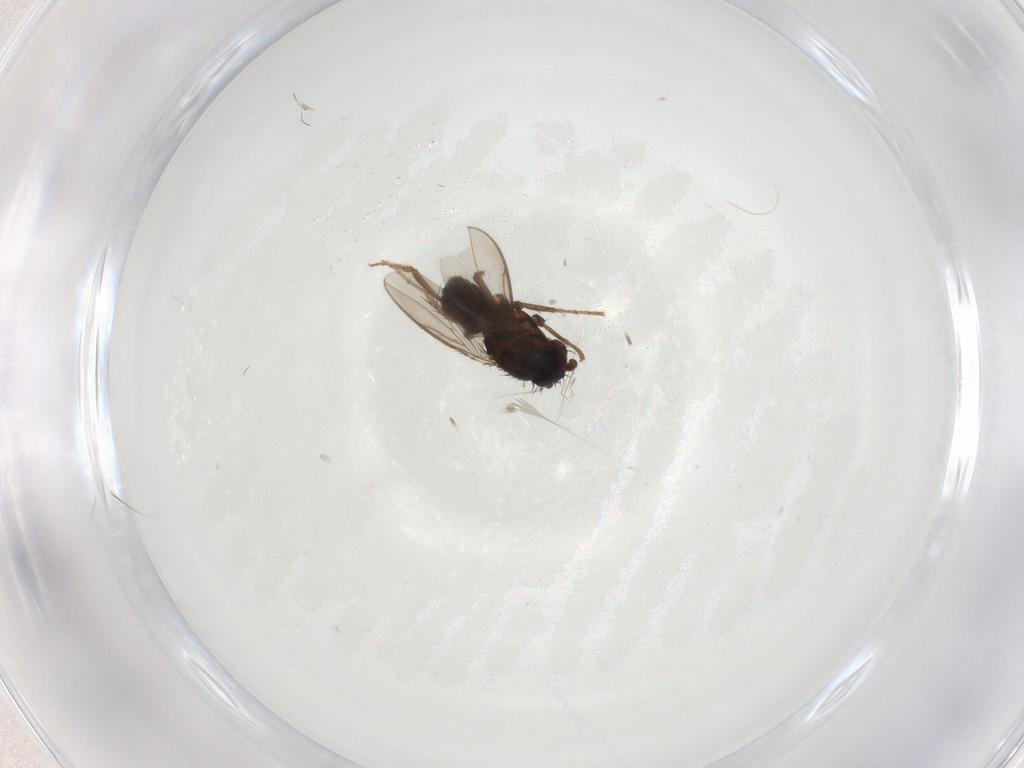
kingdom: Animalia
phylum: Arthropoda
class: Insecta
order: Diptera
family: Sphaeroceridae
